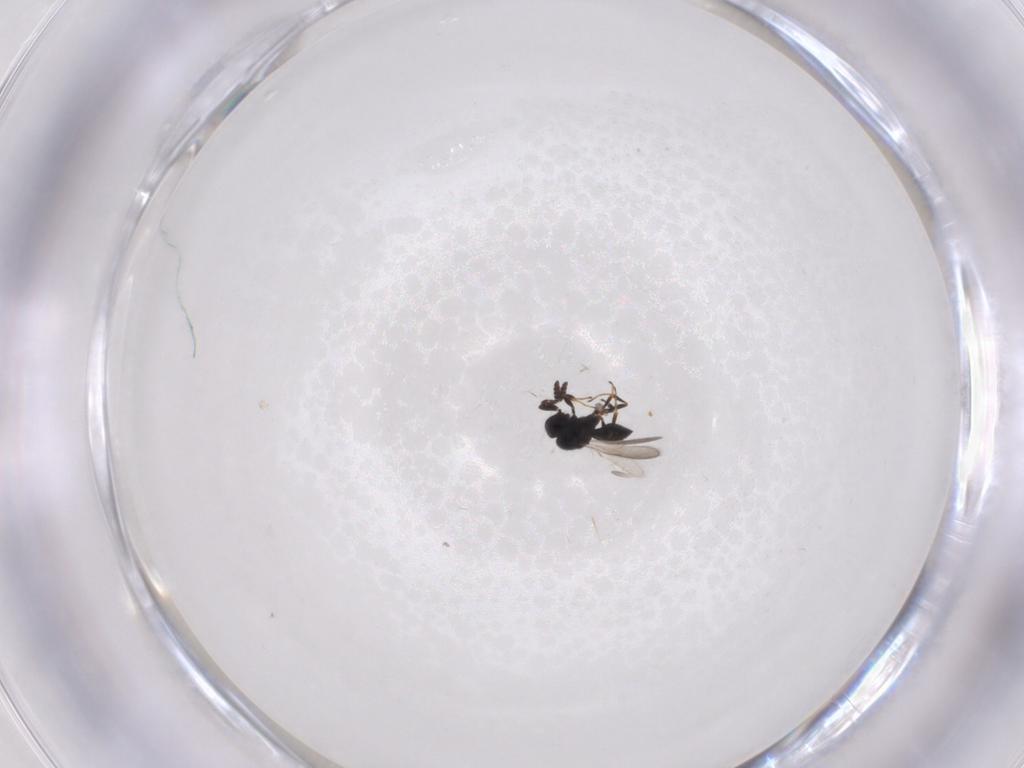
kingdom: Animalia
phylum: Arthropoda
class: Insecta
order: Hymenoptera
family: Scelionidae
